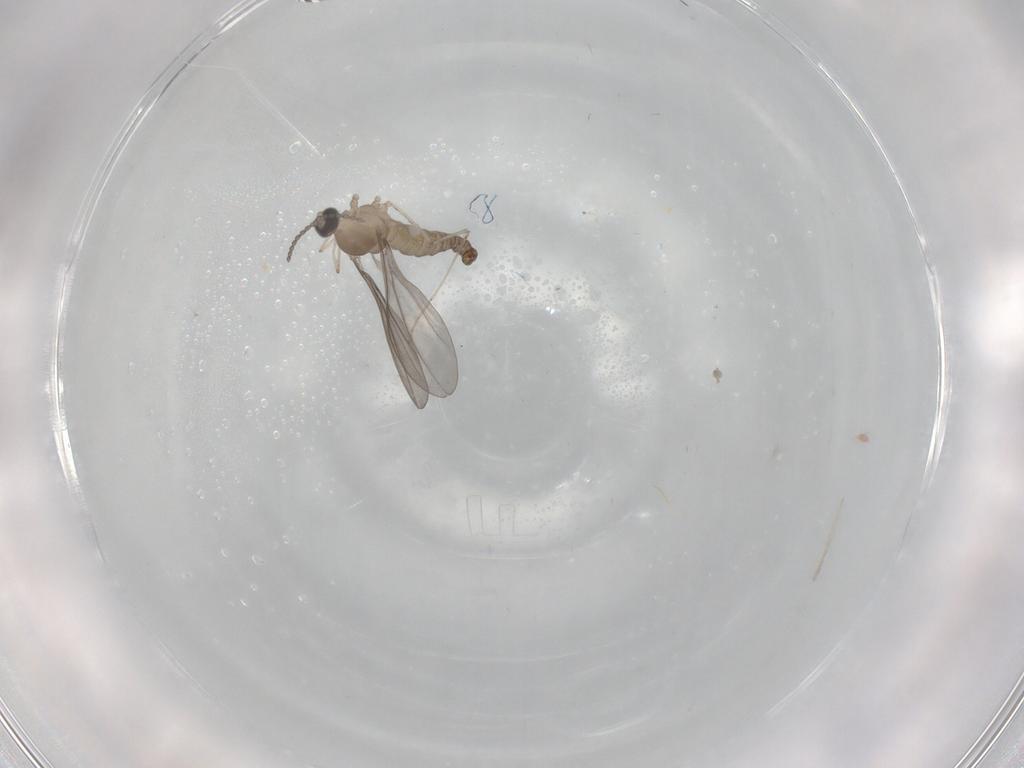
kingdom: Animalia
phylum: Arthropoda
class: Insecta
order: Diptera
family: Cecidomyiidae
